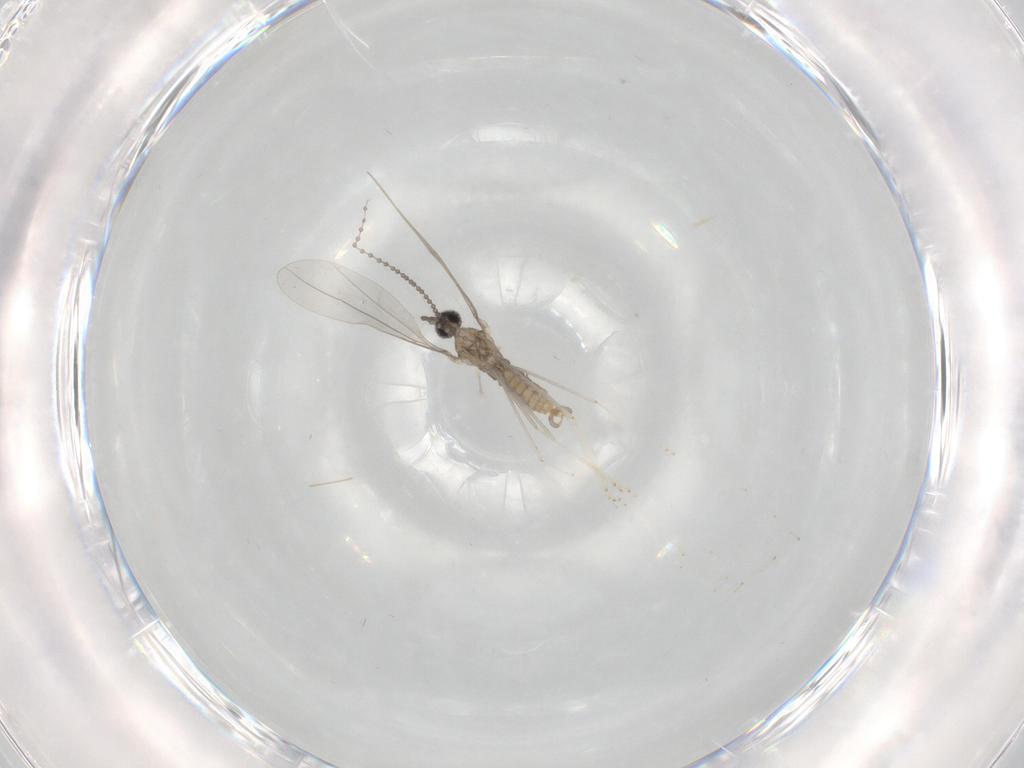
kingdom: Animalia
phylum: Arthropoda
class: Insecta
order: Diptera
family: Cecidomyiidae
